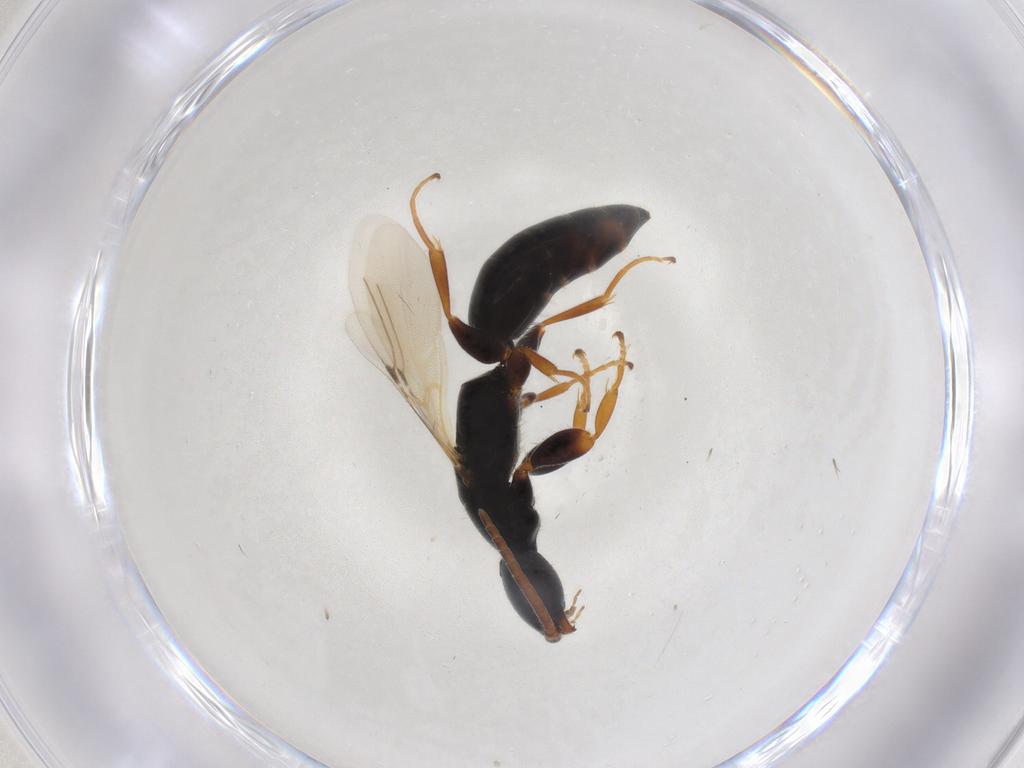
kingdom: Animalia
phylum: Arthropoda
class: Insecta
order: Hymenoptera
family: Bethylidae
